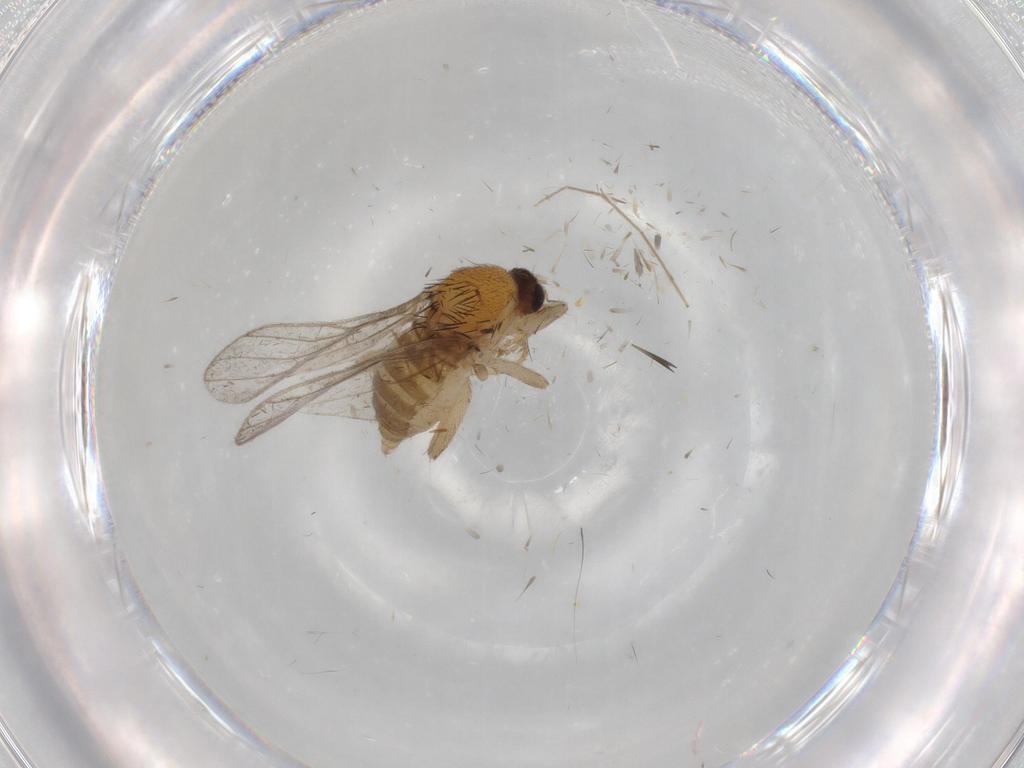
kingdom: Animalia
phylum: Arthropoda
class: Insecta
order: Diptera
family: Hybotidae
